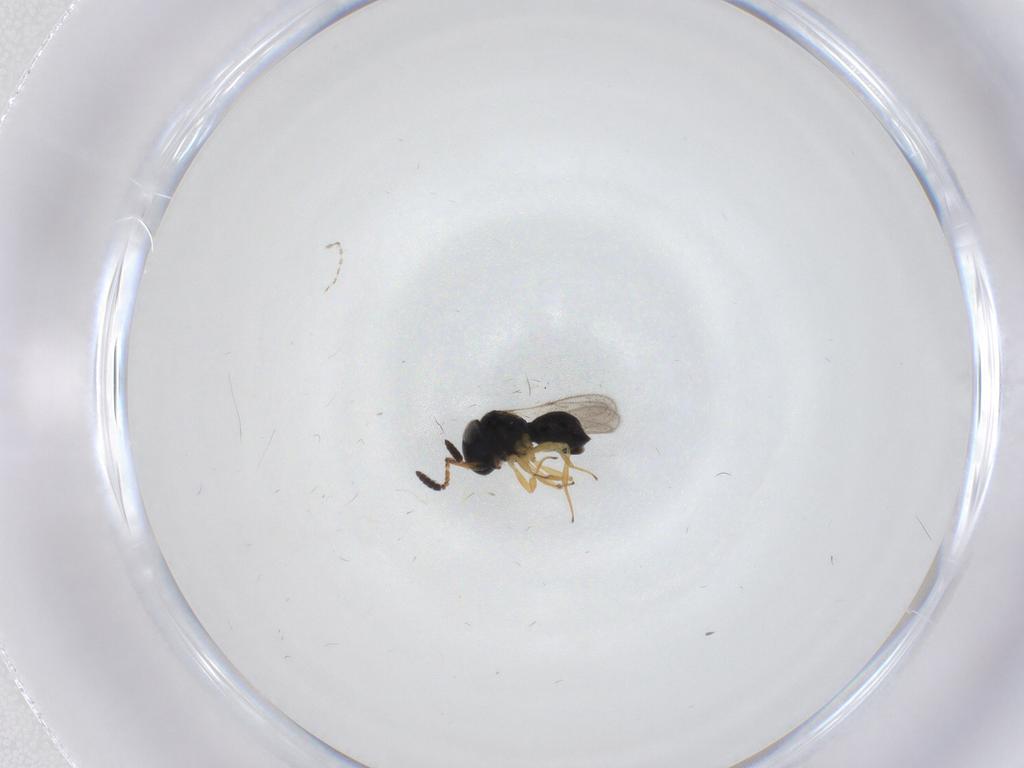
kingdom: Animalia
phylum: Arthropoda
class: Insecta
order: Hymenoptera
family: Scelionidae
